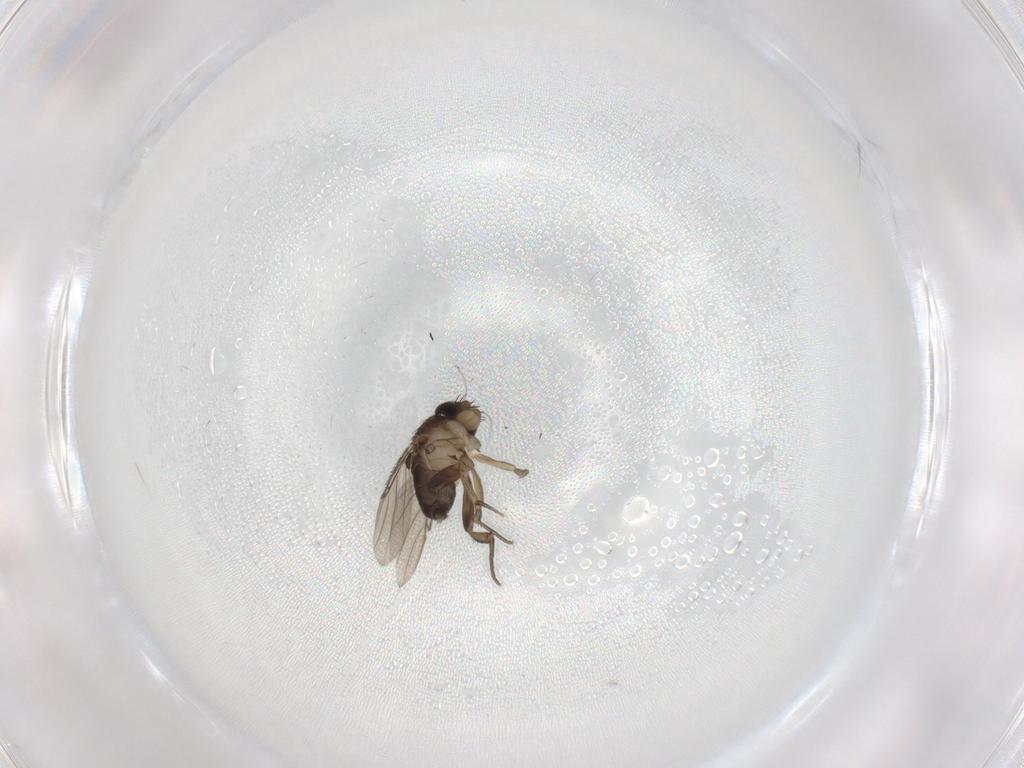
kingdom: Animalia
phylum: Arthropoda
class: Insecta
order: Diptera
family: Phoridae
